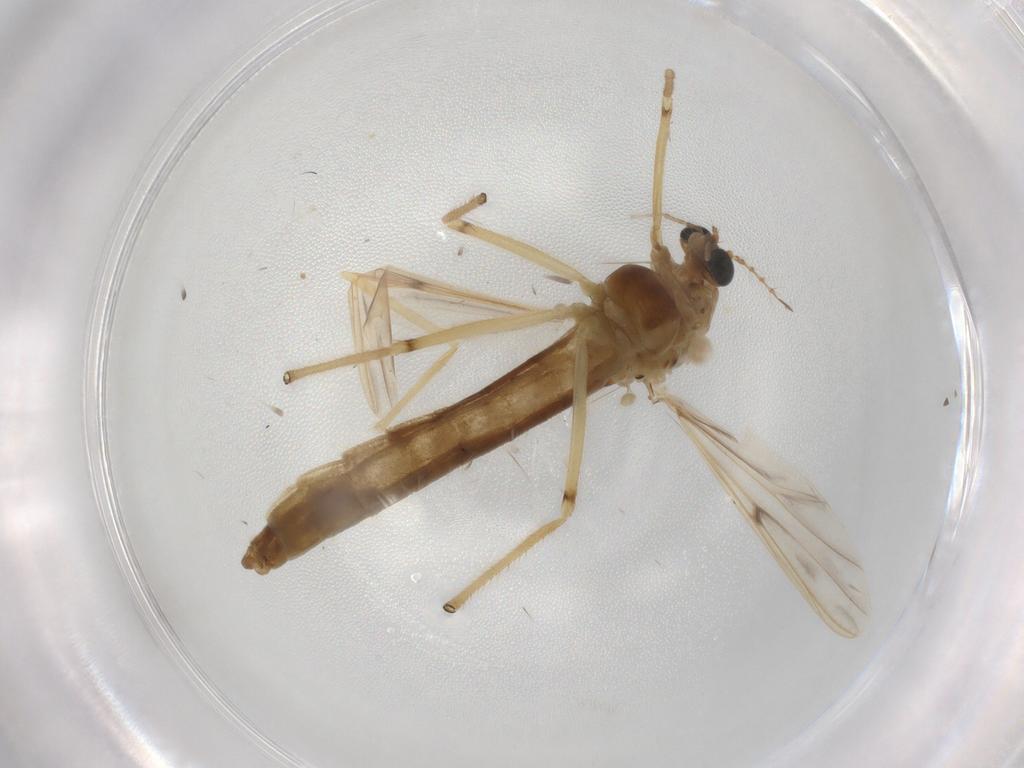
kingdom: Animalia
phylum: Arthropoda
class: Insecta
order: Diptera
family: Chironomidae
